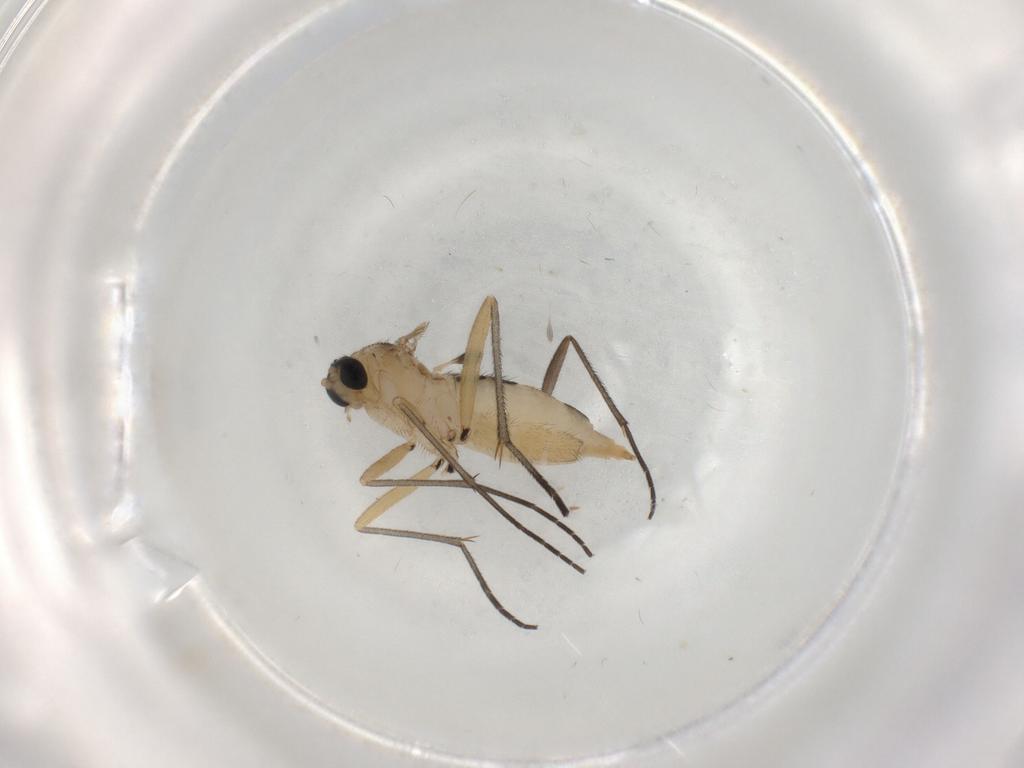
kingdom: Animalia
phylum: Arthropoda
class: Insecta
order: Diptera
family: Sciaridae
